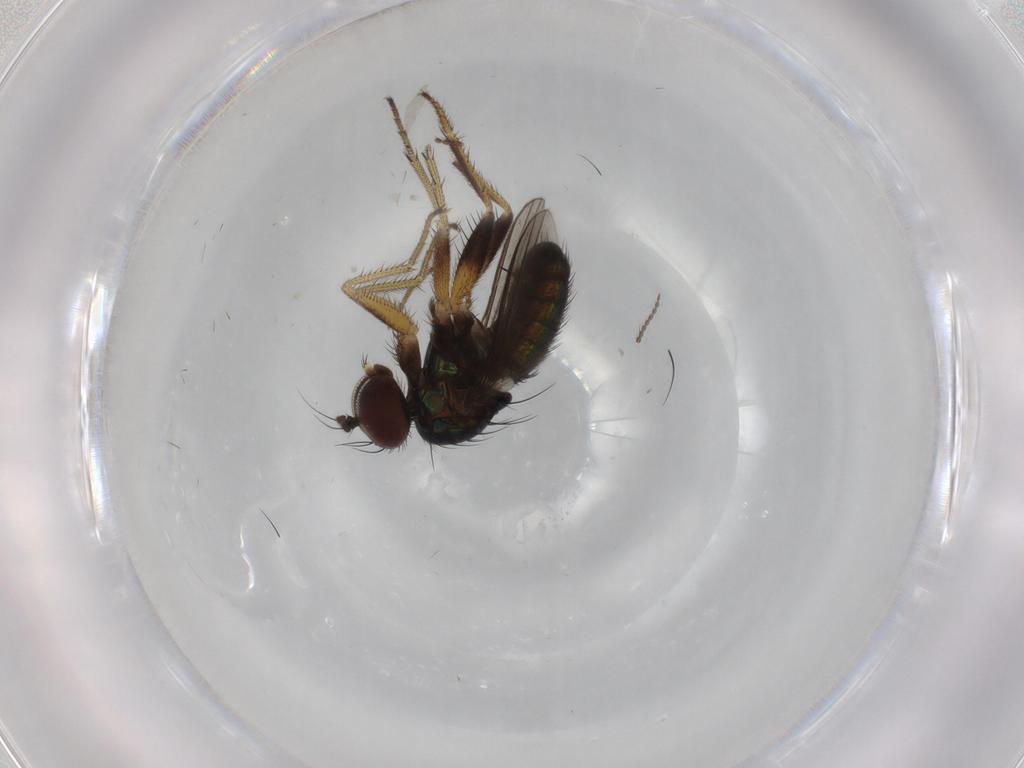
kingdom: Animalia
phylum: Arthropoda
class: Insecta
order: Diptera
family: Dolichopodidae
